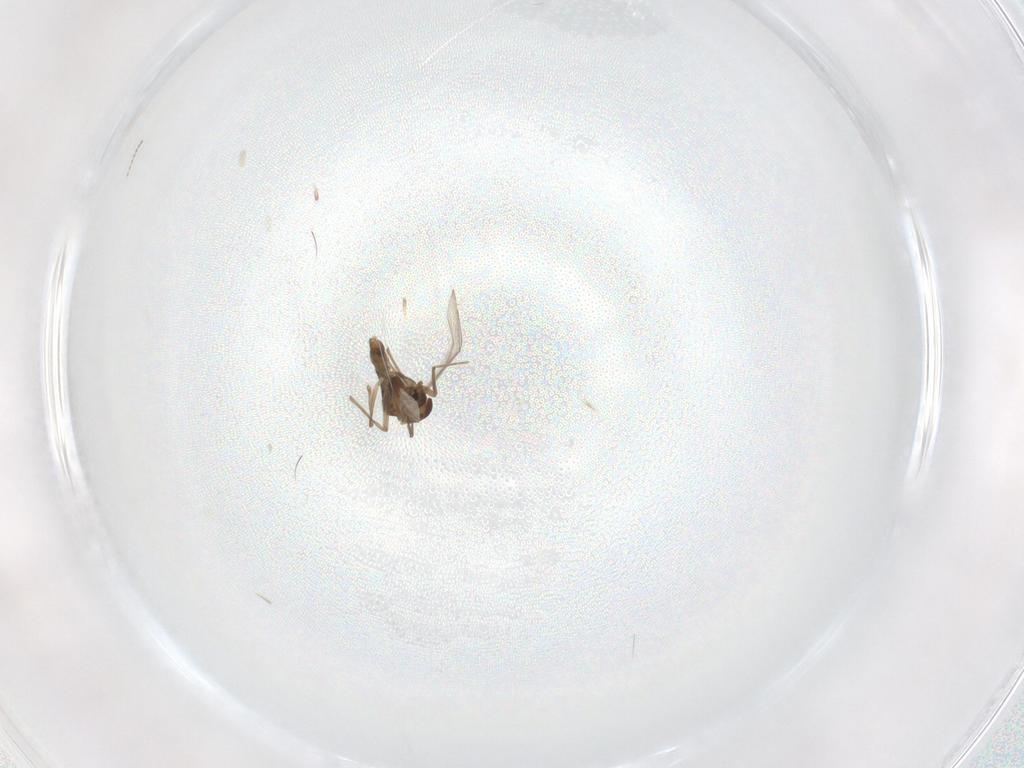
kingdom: Animalia
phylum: Arthropoda
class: Insecta
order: Diptera
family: Chironomidae
